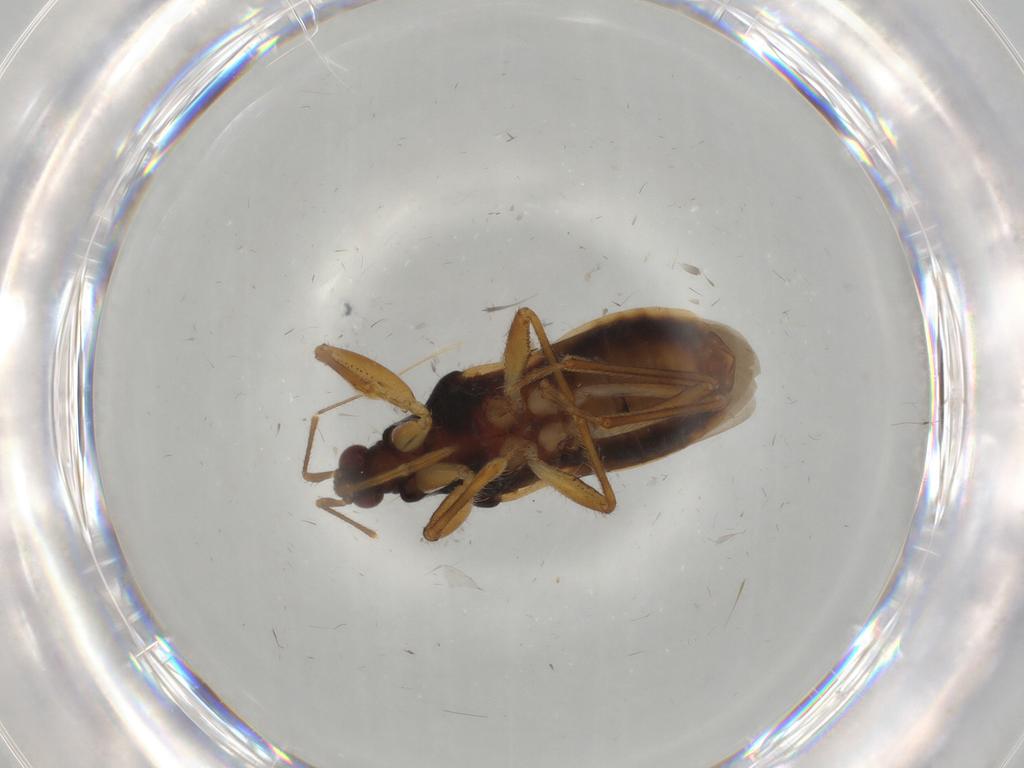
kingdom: Animalia
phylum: Arthropoda
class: Insecta
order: Hemiptera
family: Nabidae
